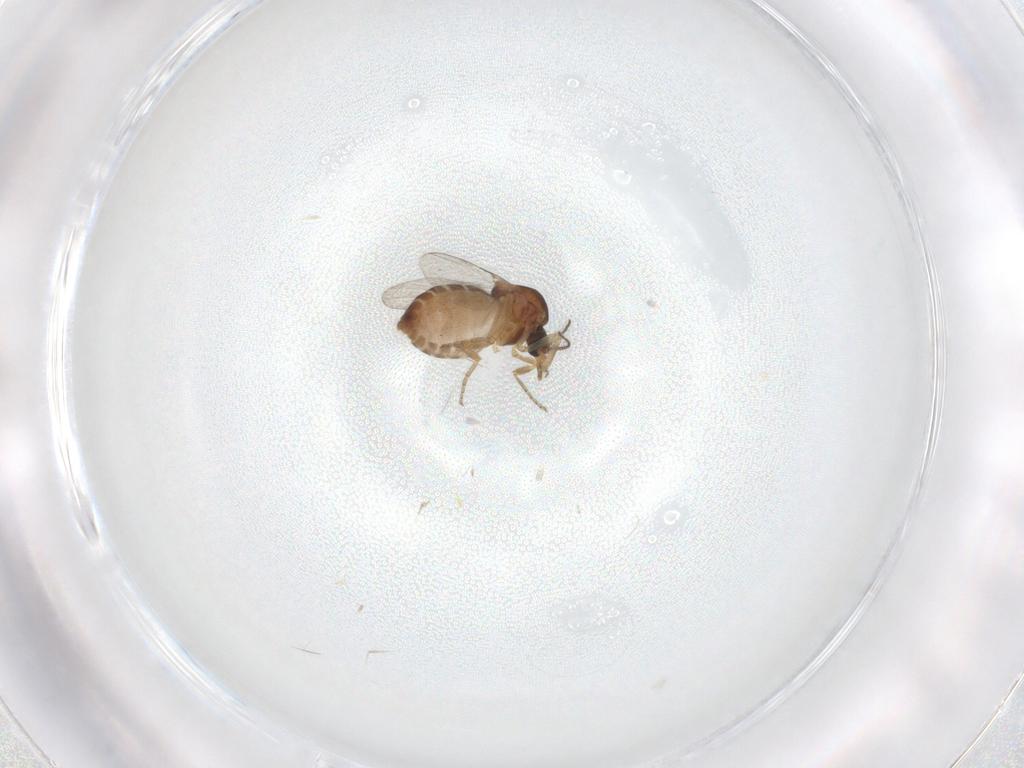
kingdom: Animalia
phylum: Arthropoda
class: Insecta
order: Diptera
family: Ceratopogonidae
